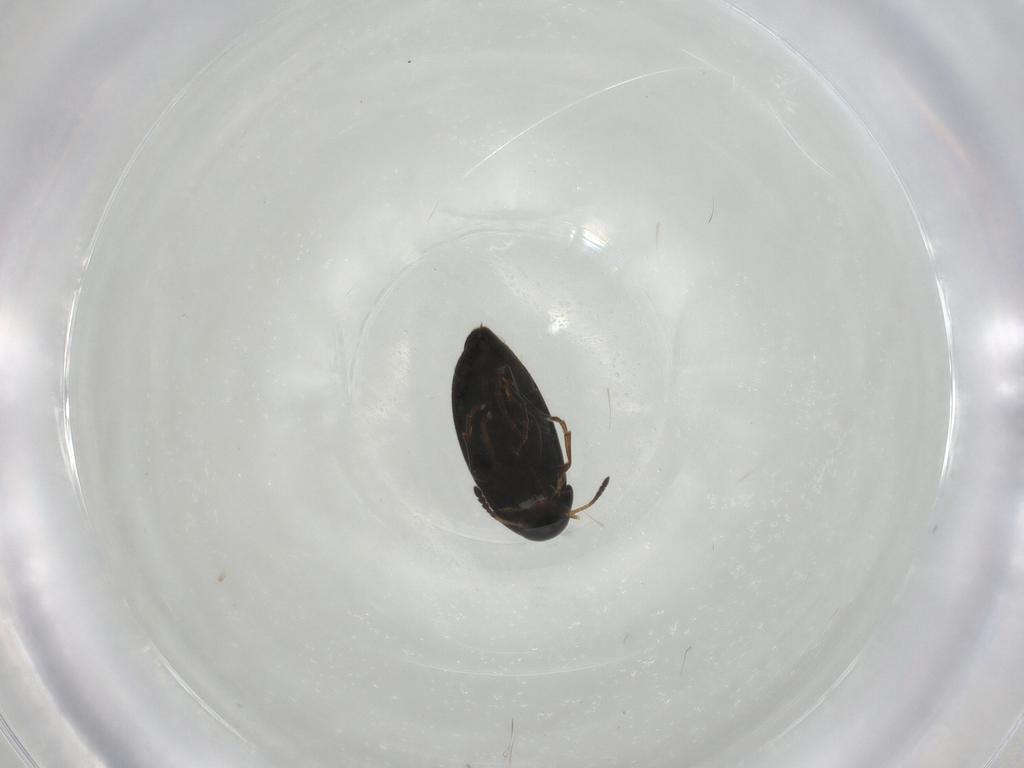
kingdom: Animalia
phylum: Arthropoda
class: Insecta
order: Coleoptera
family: Scraptiidae
